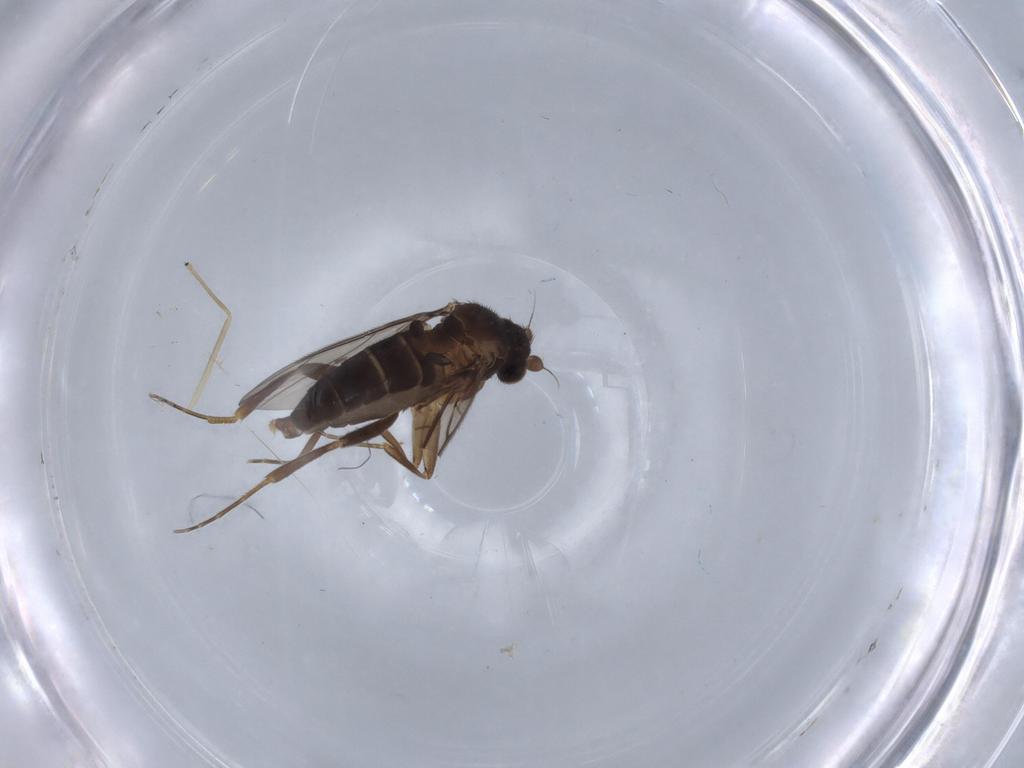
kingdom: Animalia
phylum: Arthropoda
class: Insecta
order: Diptera
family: Chironomidae
